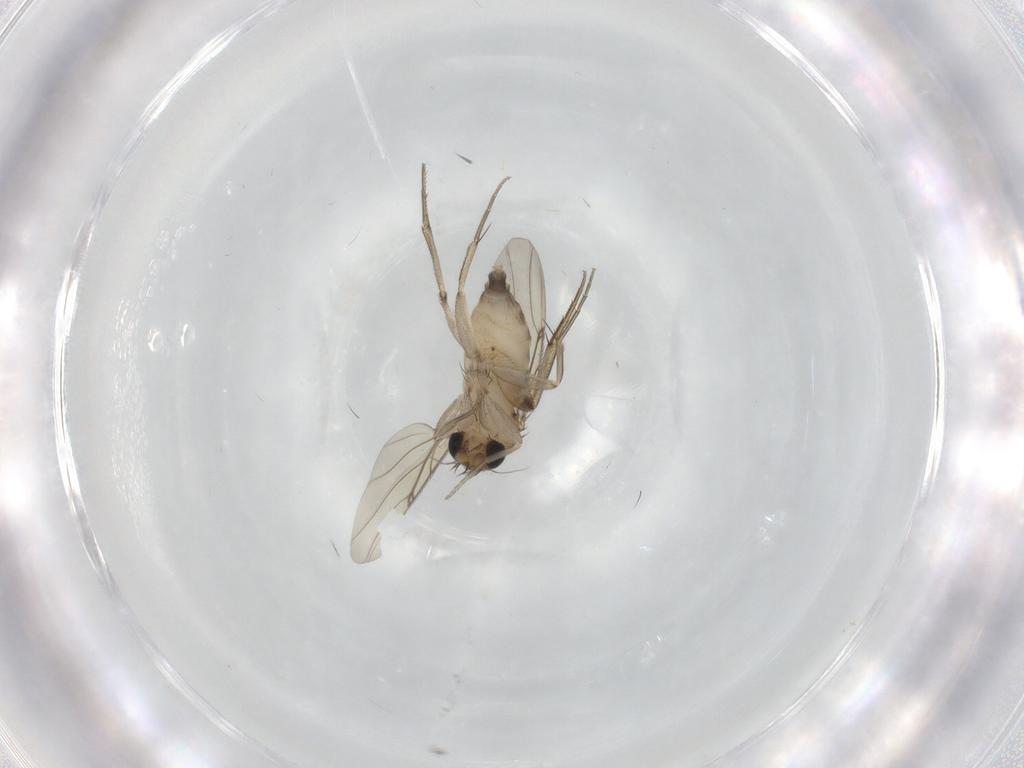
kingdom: Animalia
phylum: Arthropoda
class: Insecta
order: Diptera
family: Phoridae
